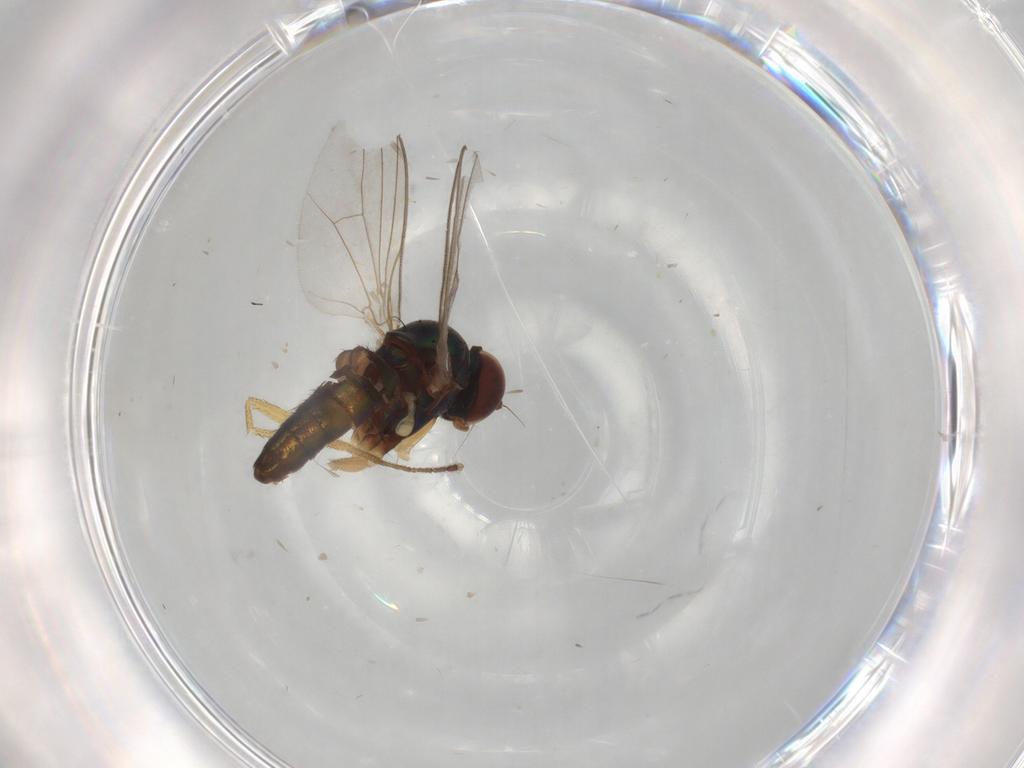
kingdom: Animalia
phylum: Arthropoda
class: Insecta
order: Diptera
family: Dolichopodidae
